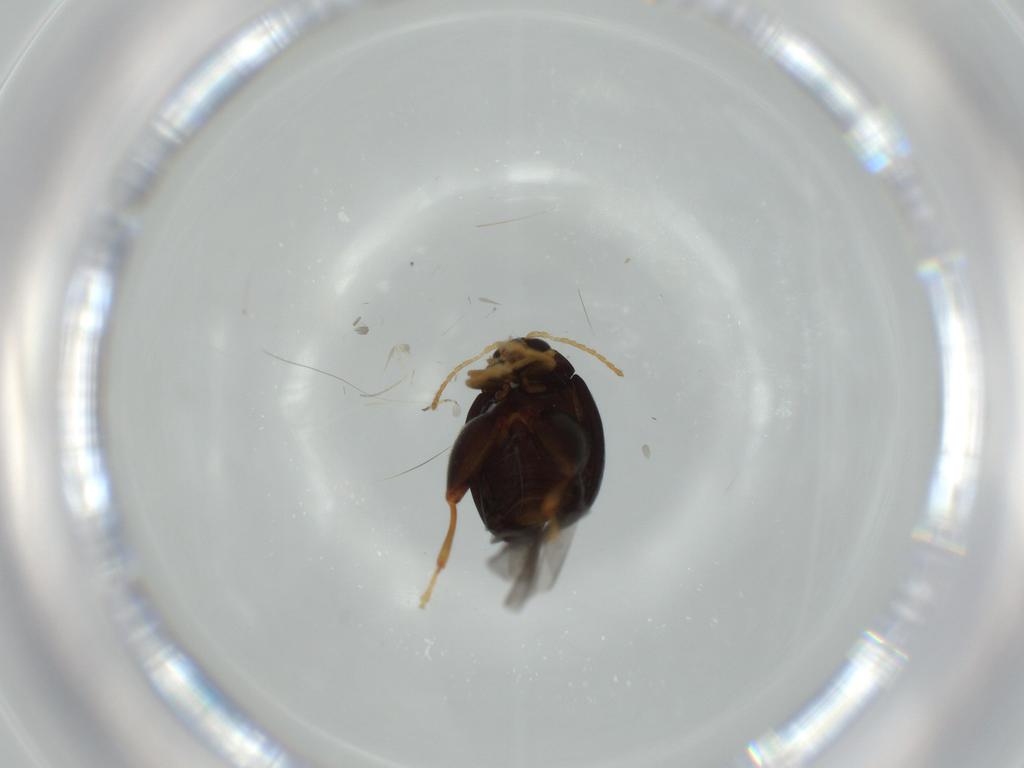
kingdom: Animalia
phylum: Arthropoda
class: Insecta
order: Coleoptera
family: Chrysomelidae
